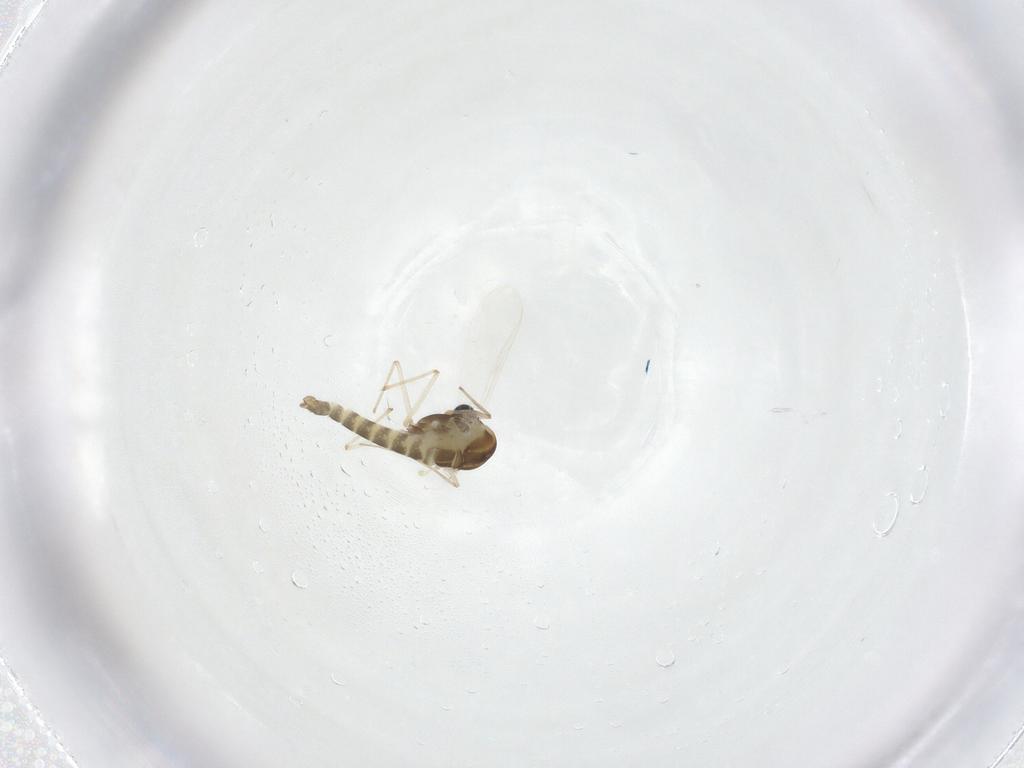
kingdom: Animalia
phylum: Arthropoda
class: Insecta
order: Diptera
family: Chironomidae
